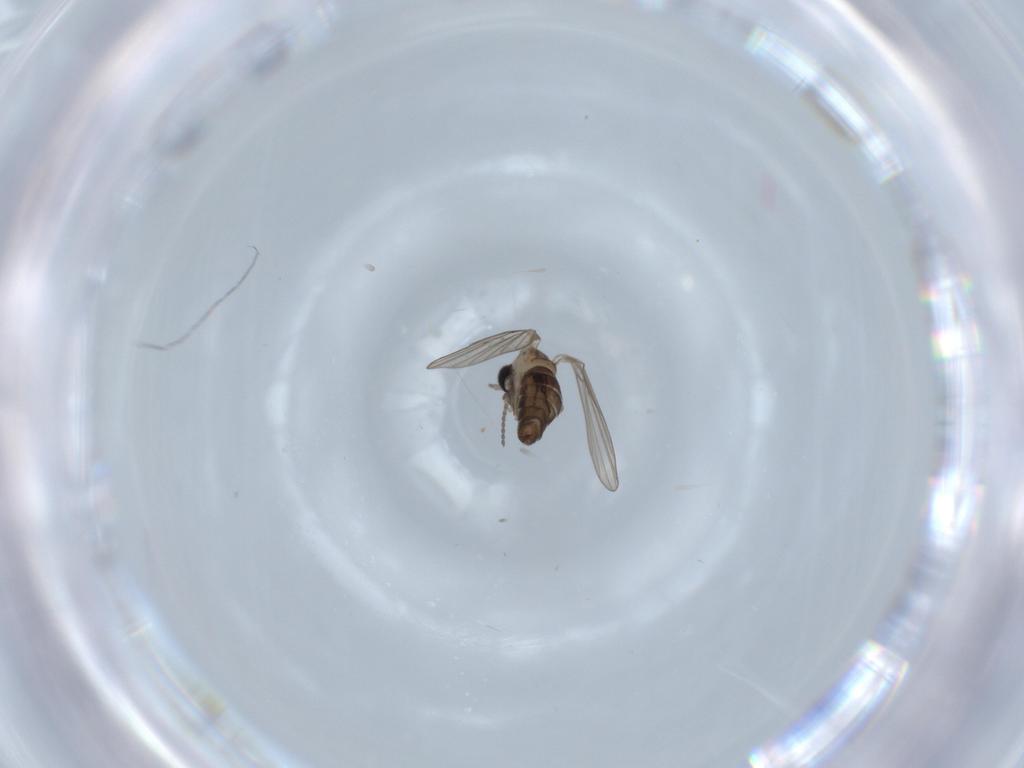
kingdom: Animalia
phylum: Arthropoda
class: Insecta
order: Diptera
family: Psychodidae
